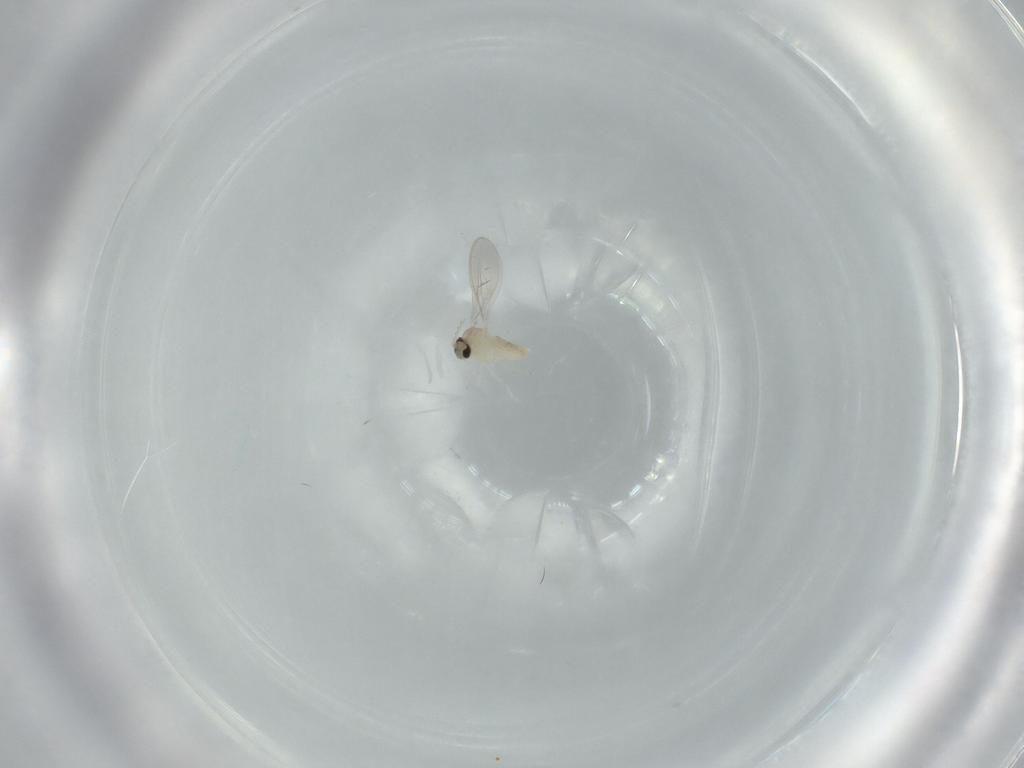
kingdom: Animalia
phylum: Arthropoda
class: Insecta
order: Diptera
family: Cecidomyiidae
